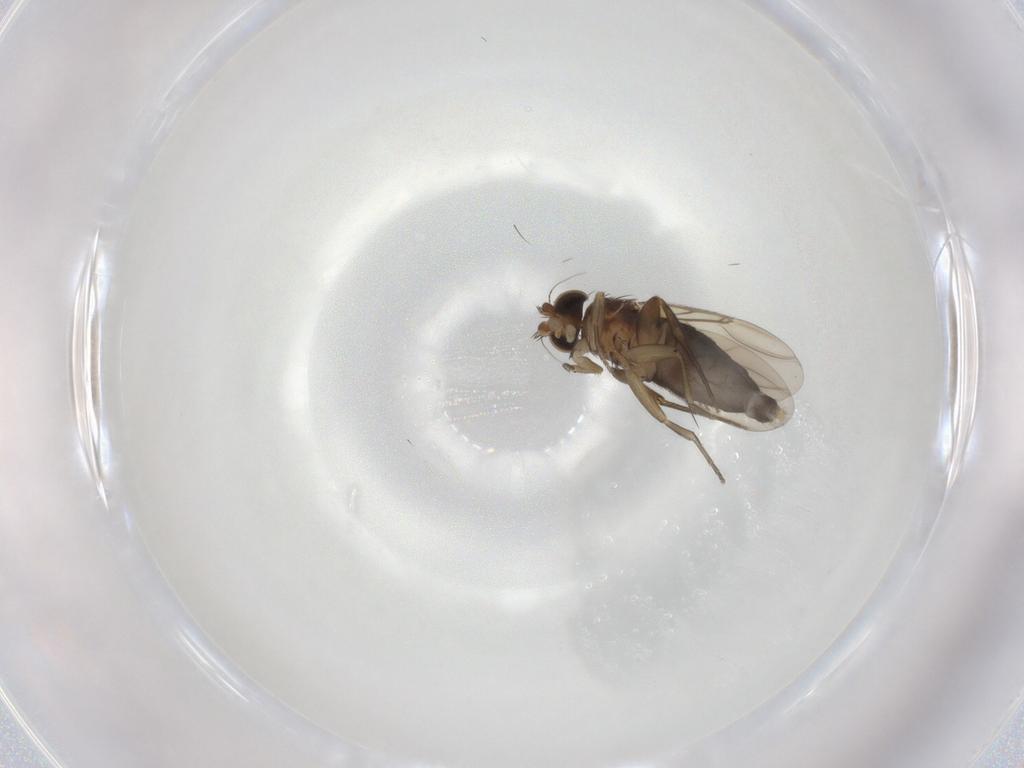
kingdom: Animalia
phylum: Arthropoda
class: Insecta
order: Diptera
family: Phoridae
